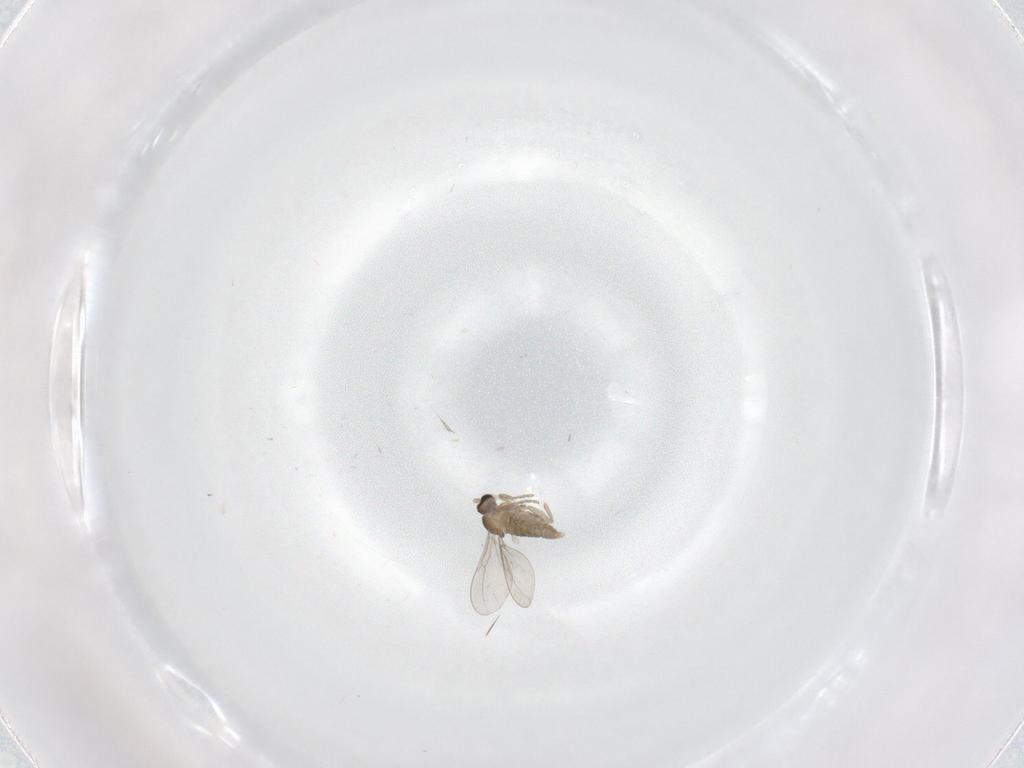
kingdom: Animalia
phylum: Arthropoda
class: Insecta
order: Diptera
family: Cecidomyiidae
